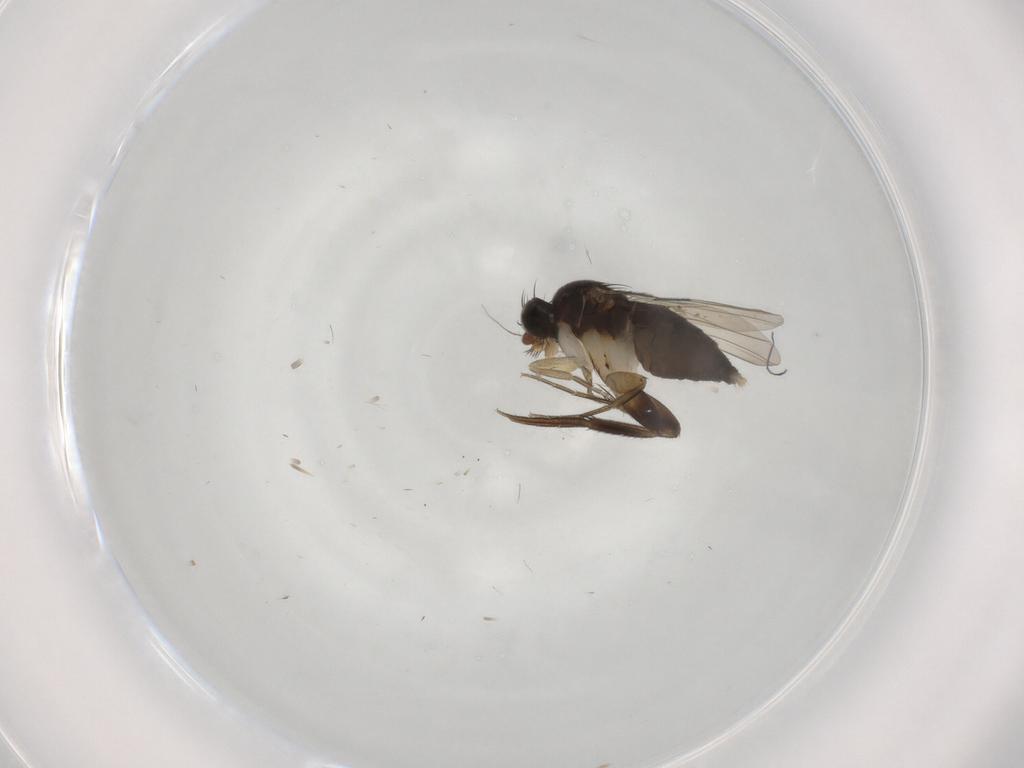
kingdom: Animalia
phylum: Arthropoda
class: Insecta
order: Diptera
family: Phoridae
